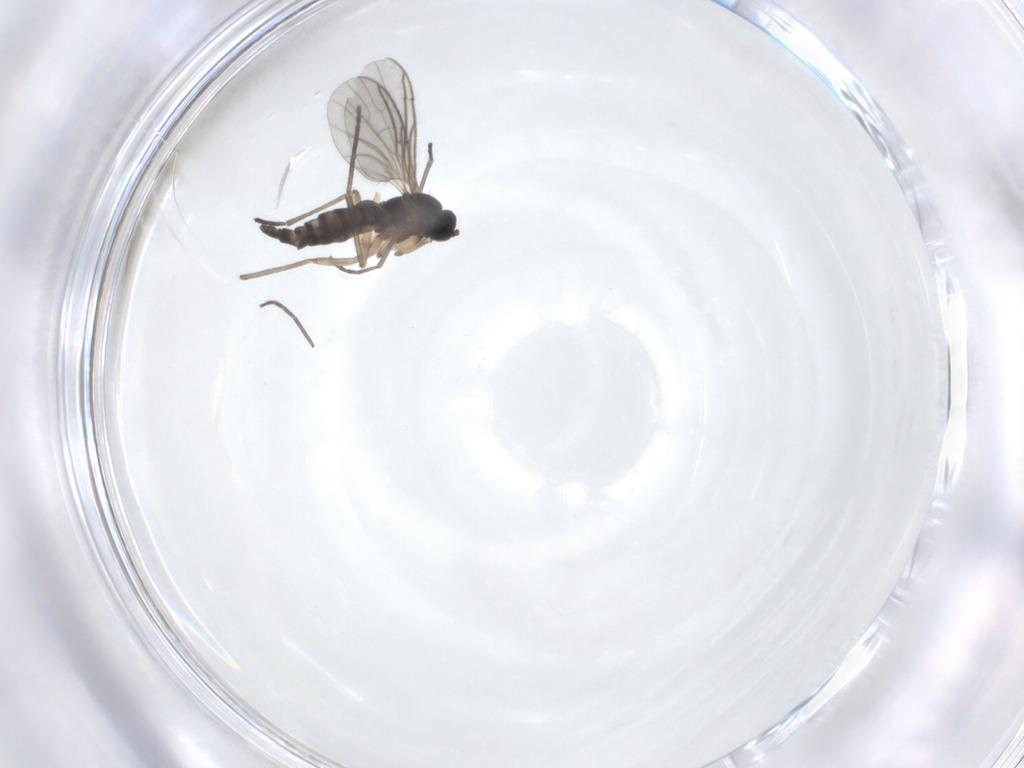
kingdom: Animalia
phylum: Arthropoda
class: Insecta
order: Diptera
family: Sciaridae
